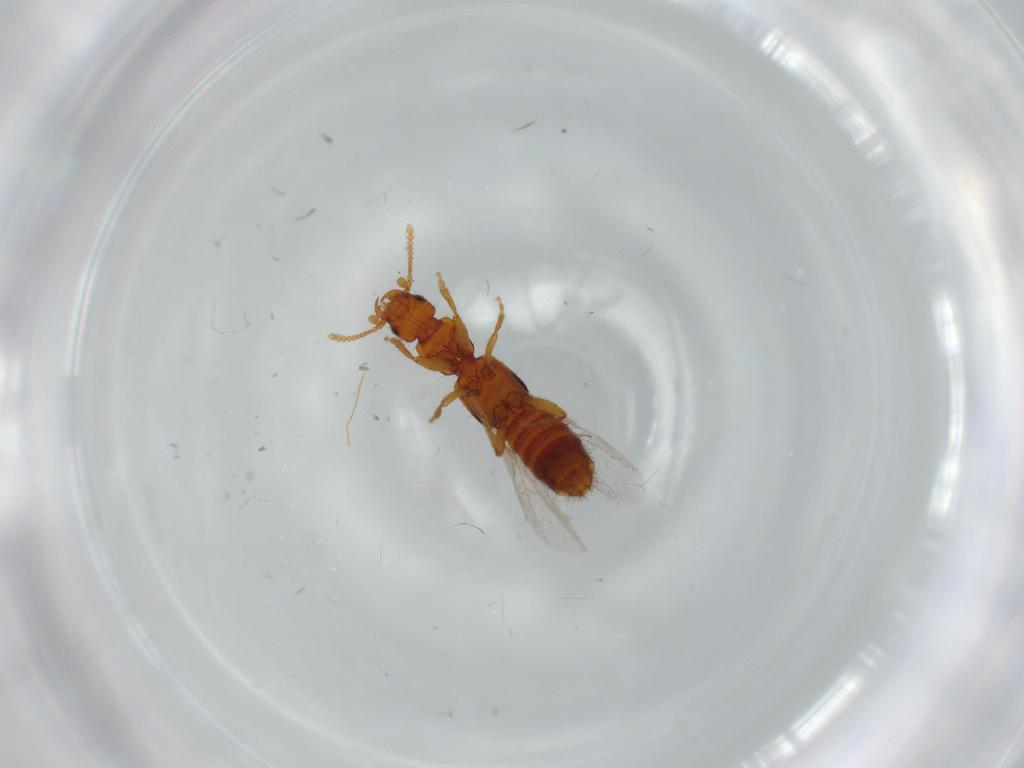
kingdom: Animalia
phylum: Arthropoda
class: Insecta
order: Coleoptera
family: Staphylinidae
